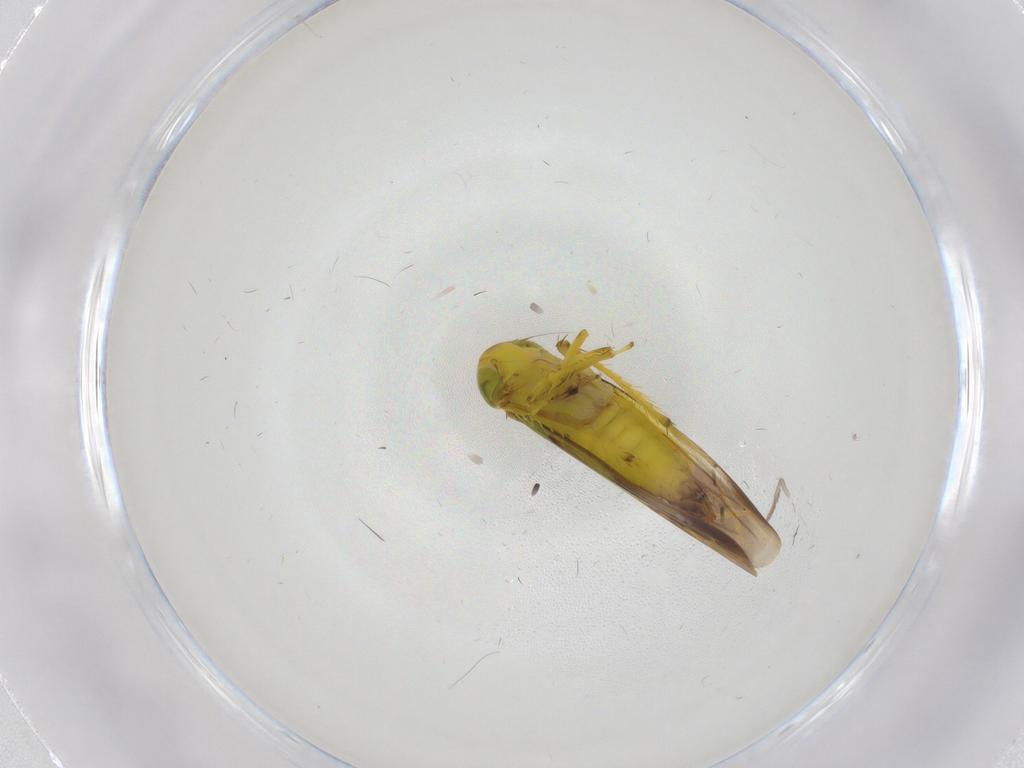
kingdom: Animalia
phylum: Arthropoda
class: Insecta
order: Hemiptera
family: Cicadellidae
